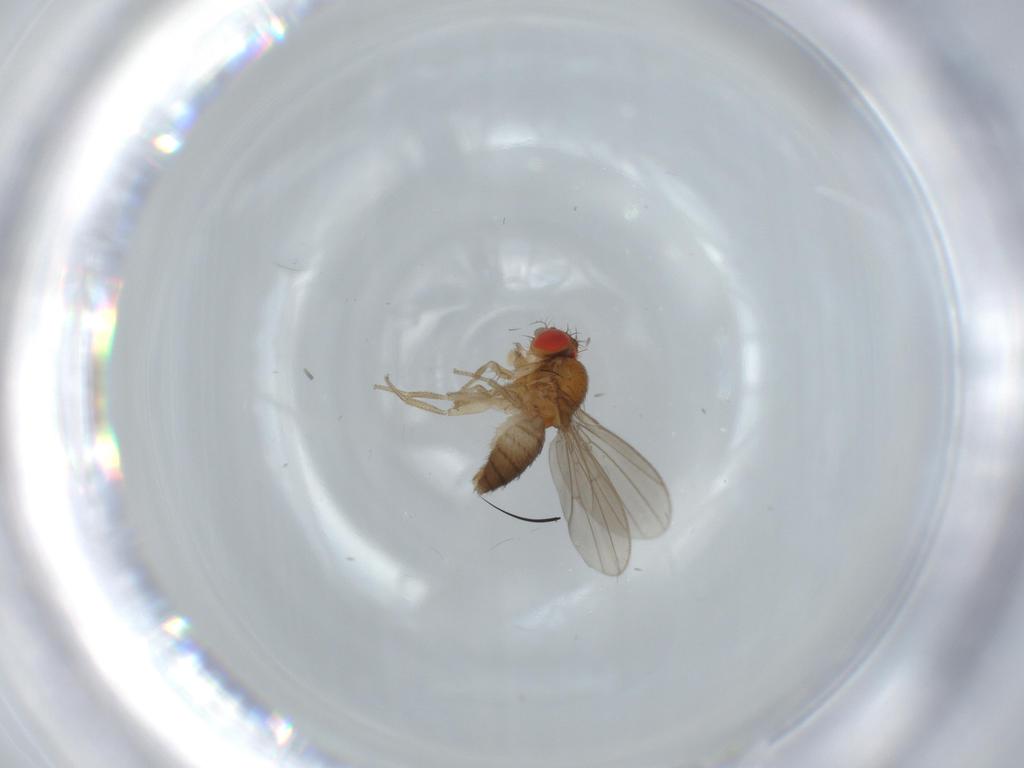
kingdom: Animalia
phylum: Arthropoda
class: Insecta
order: Diptera
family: Drosophilidae
